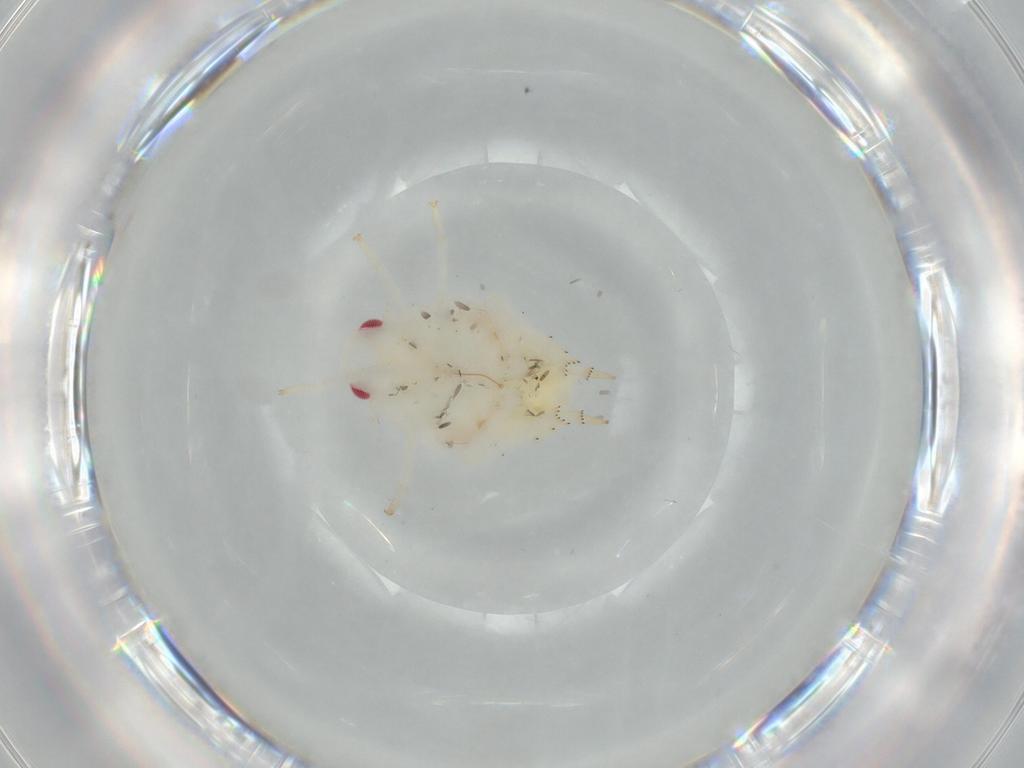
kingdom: Animalia
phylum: Arthropoda
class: Insecta
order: Hemiptera
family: Flatidae
